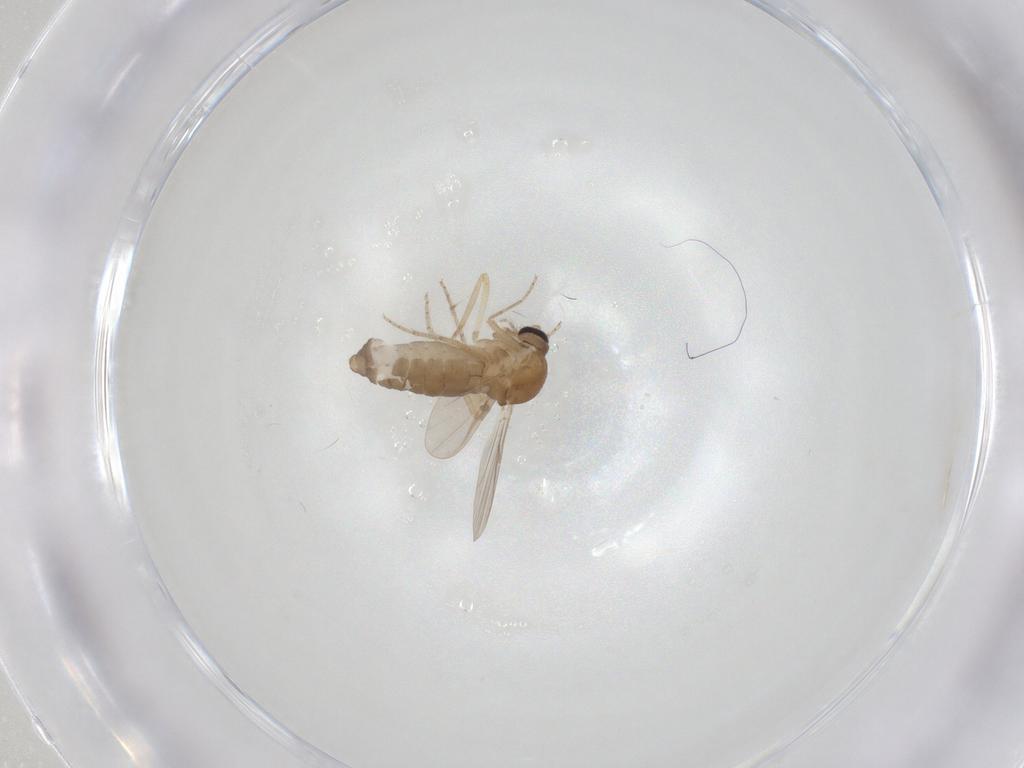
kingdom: Animalia
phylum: Arthropoda
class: Insecta
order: Diptera
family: Ceratopogonidae
